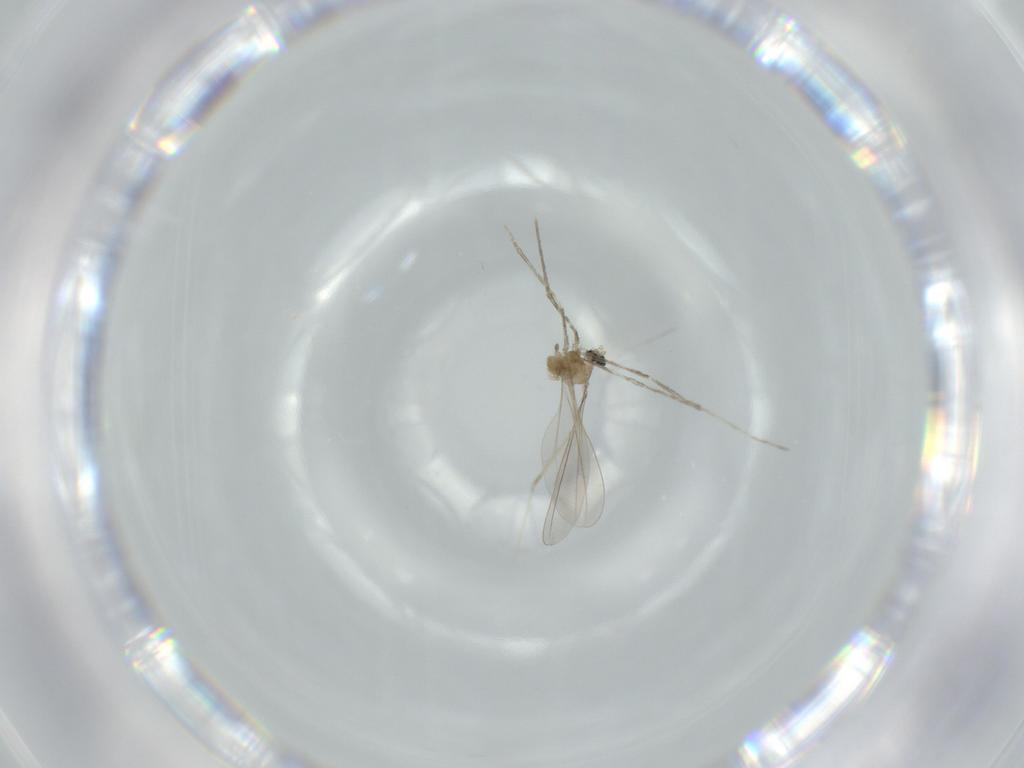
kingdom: Animalia
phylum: Arthropoda
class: Insecta
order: Diptera
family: Cecidomyiidae
